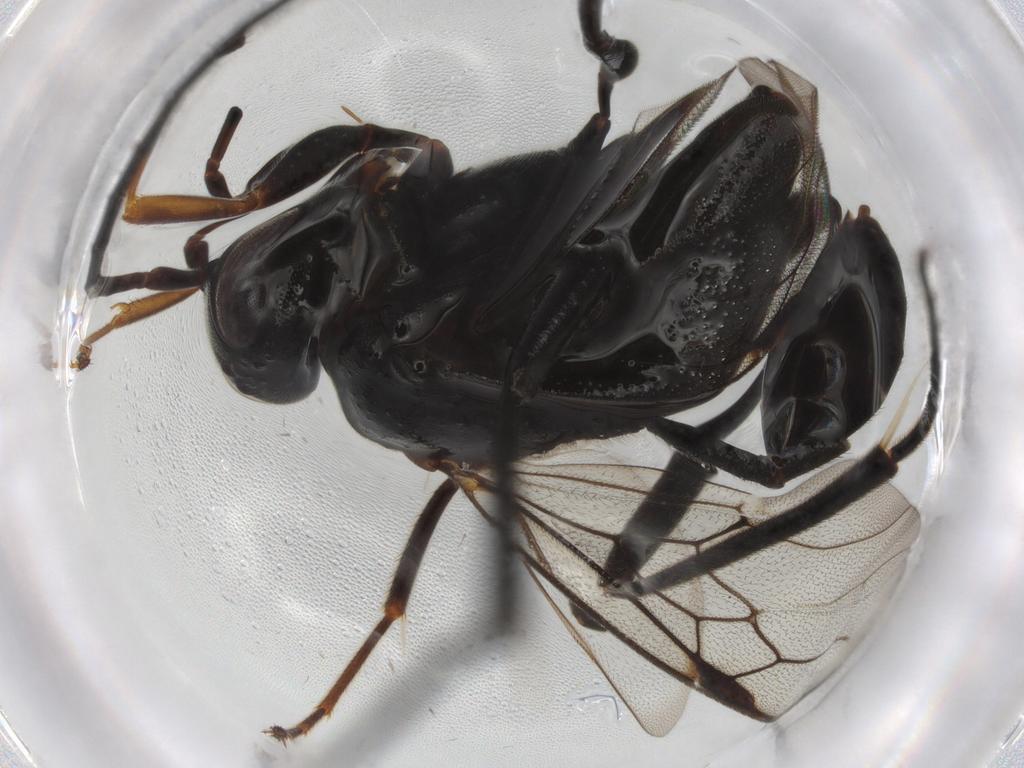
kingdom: Animalia
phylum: Arthropoda
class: Insecta
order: Hymenoptera
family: Evaniidae
